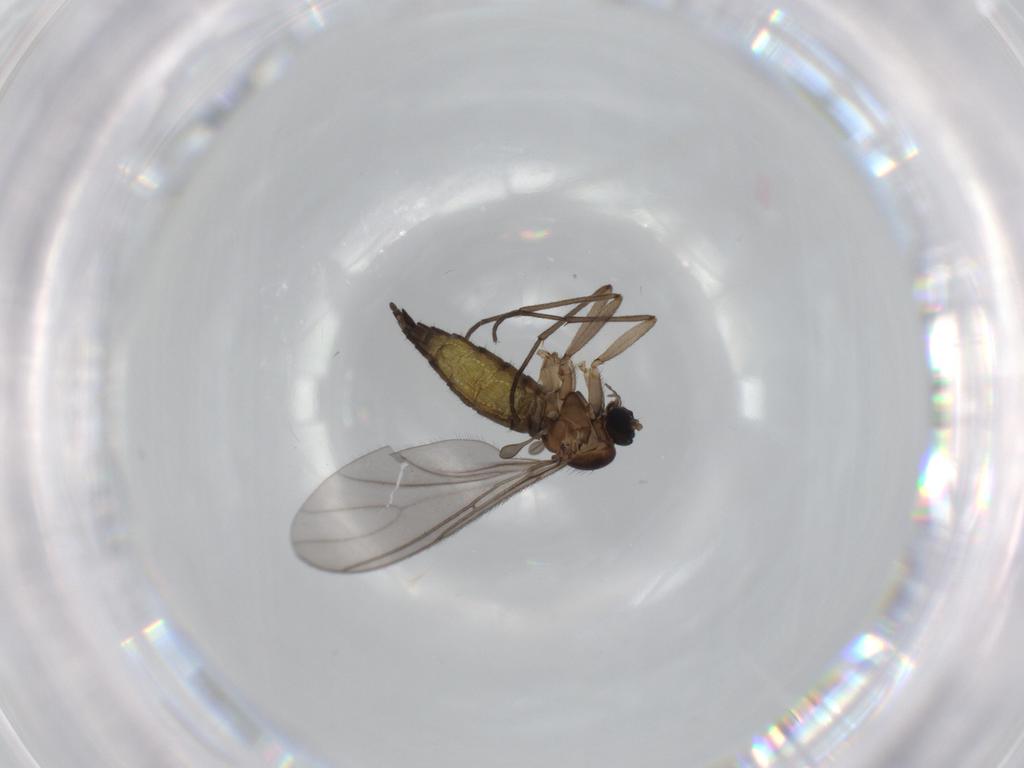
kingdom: Animalia
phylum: Arthropoda
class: Insecta
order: Diptera
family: Sciaridae
